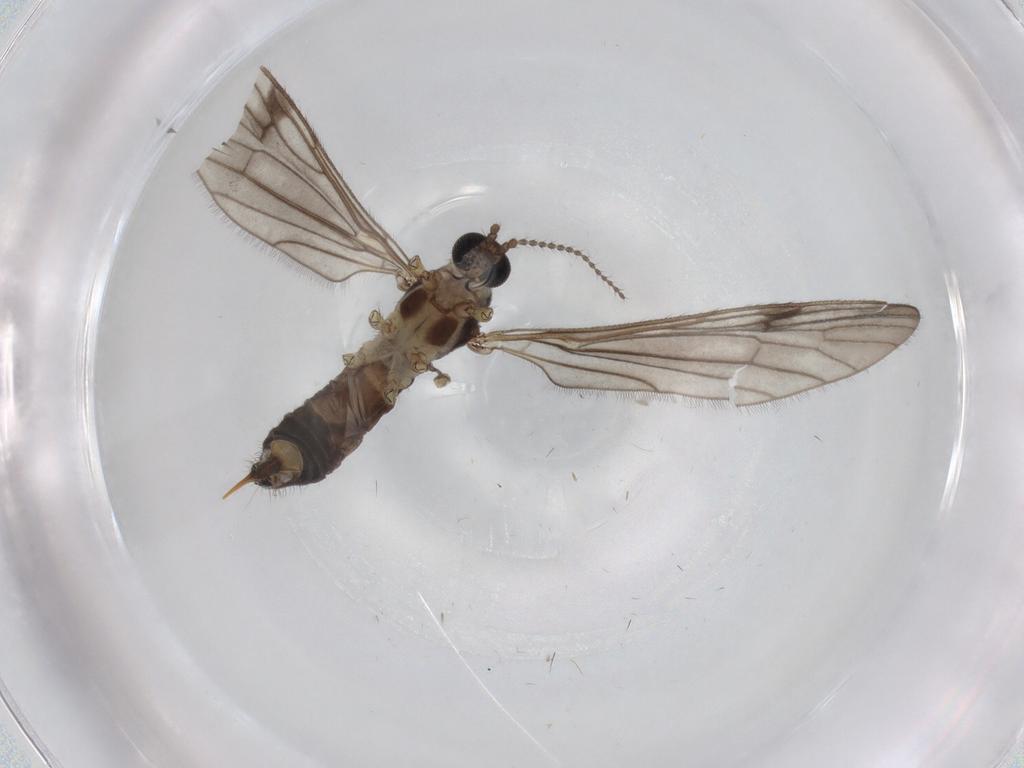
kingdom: Animalia
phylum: Arthropoda
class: Insecta
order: Diptera
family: Limoniidae
